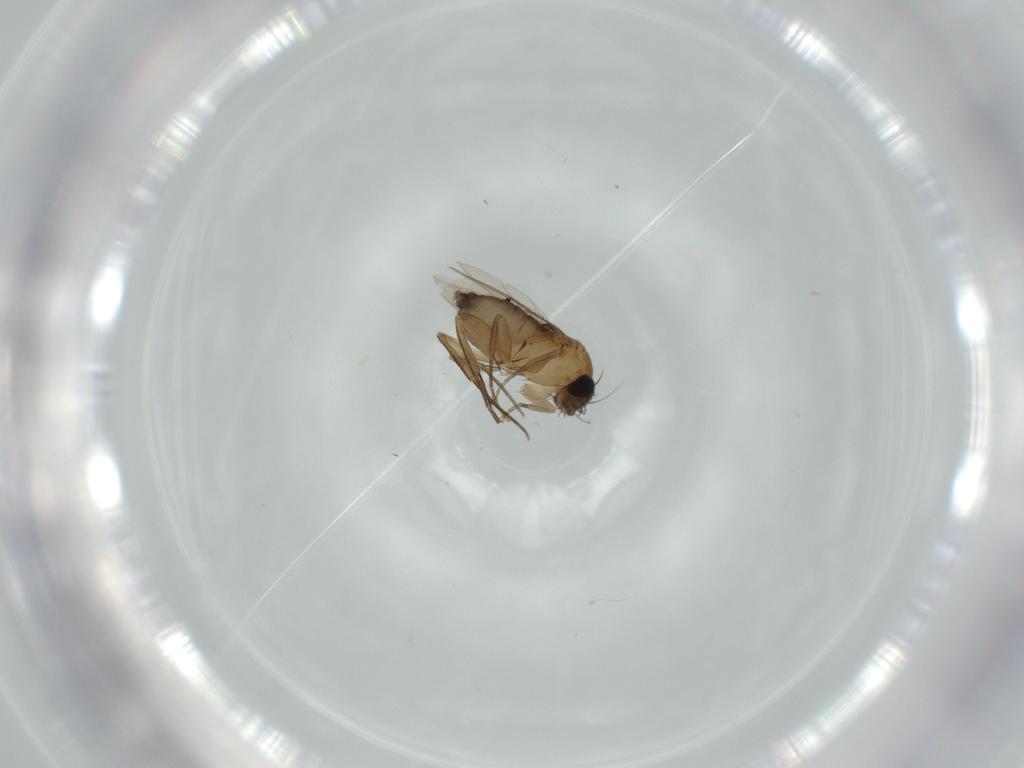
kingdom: Animalia
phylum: Arthropoda
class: Insecta
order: Diptera
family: Phoridae
